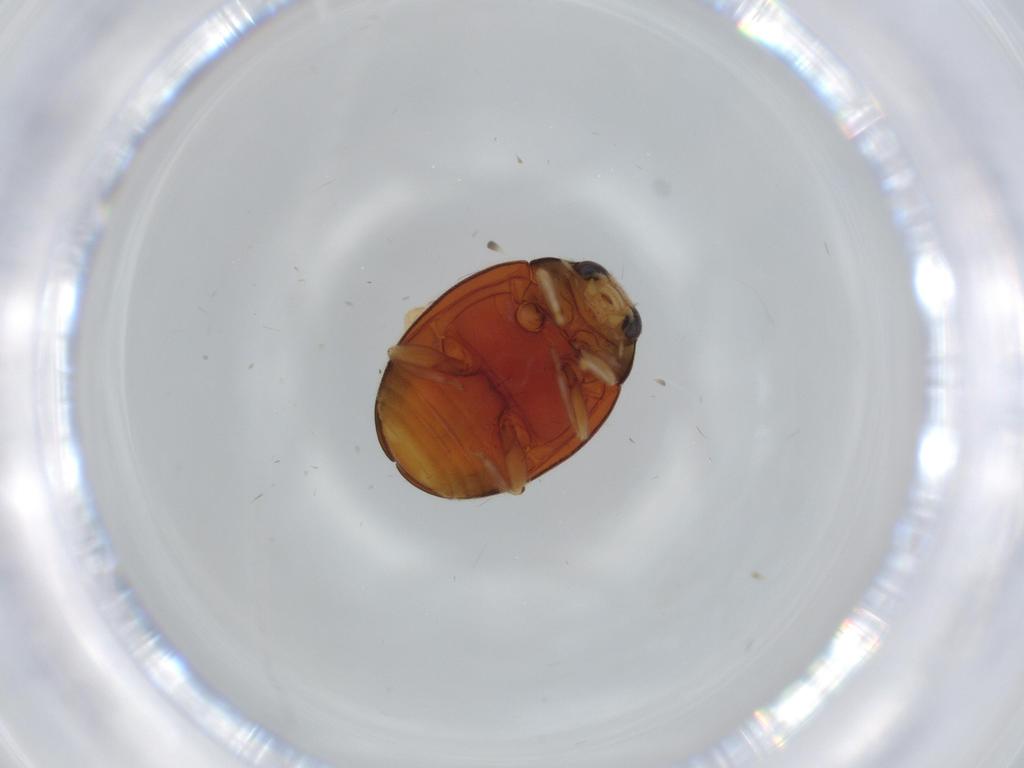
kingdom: Animalia
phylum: Arthropoda
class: Insecta
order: Coleoptera
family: Coccinellidae
